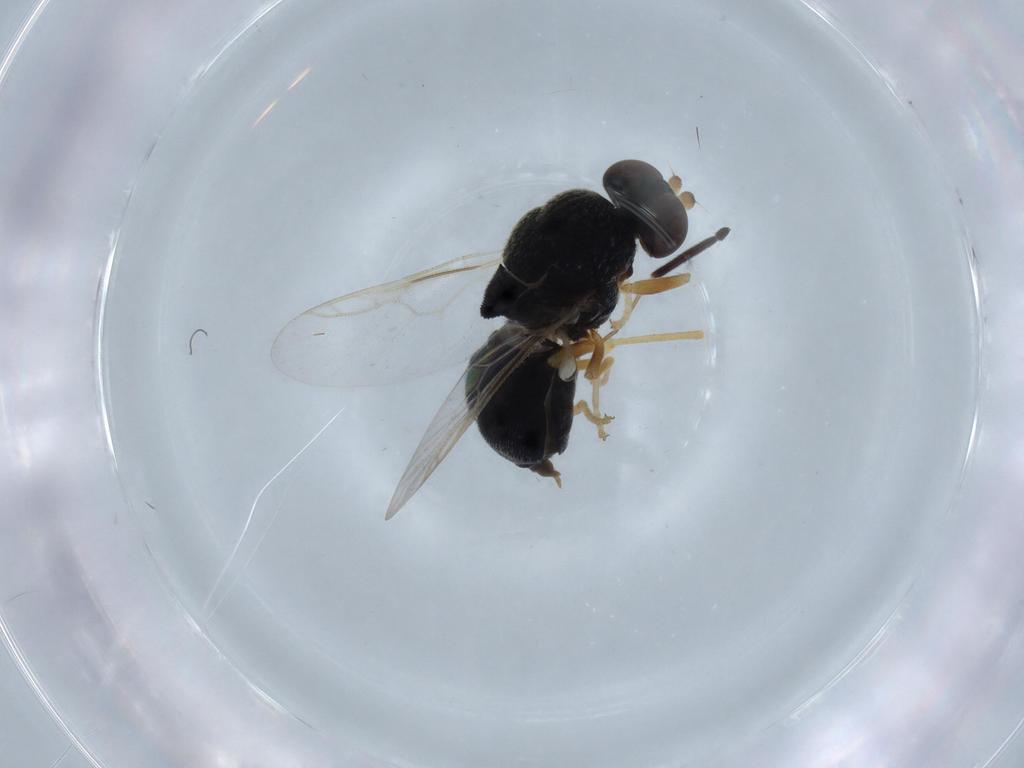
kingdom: Animalia
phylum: Arthropoda
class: Insecta
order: Diptera
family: Stratiomyidae
